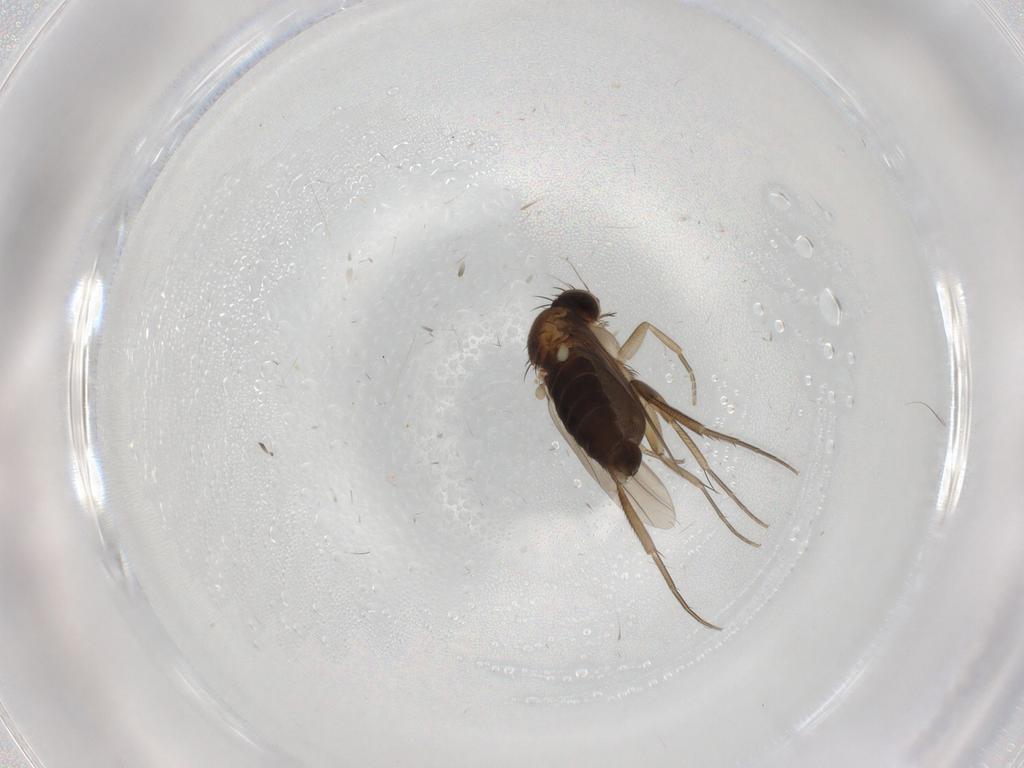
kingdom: Animalia
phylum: Arthropoda
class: Insecta
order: Diptera
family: Phoridae
